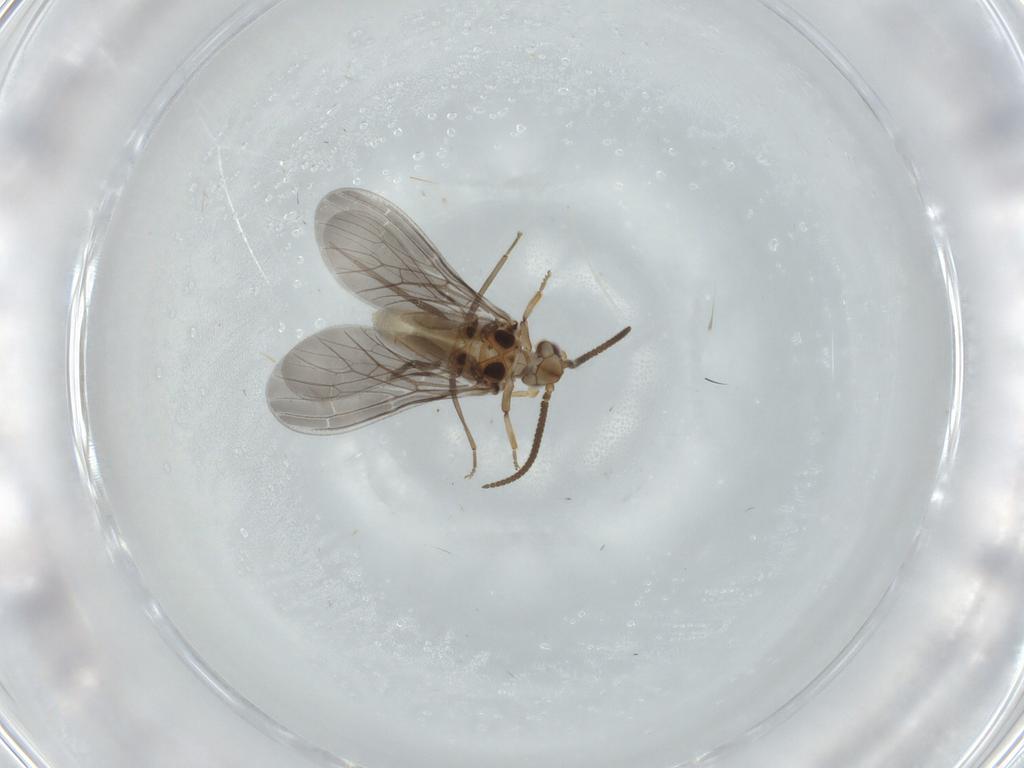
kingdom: Animalia
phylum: Arthropoda
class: Insecta
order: Neuroptera
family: Coniopterygidae
